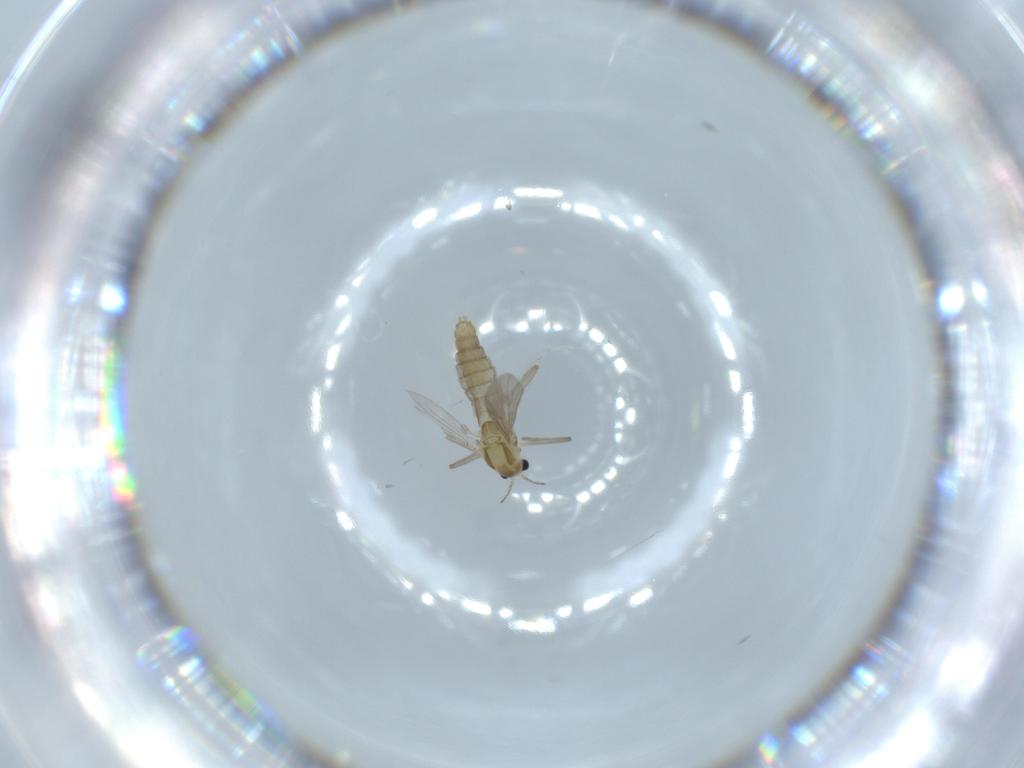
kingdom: Animalia
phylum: Arthropoda
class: Insecta
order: Diptera
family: Chironomidae
